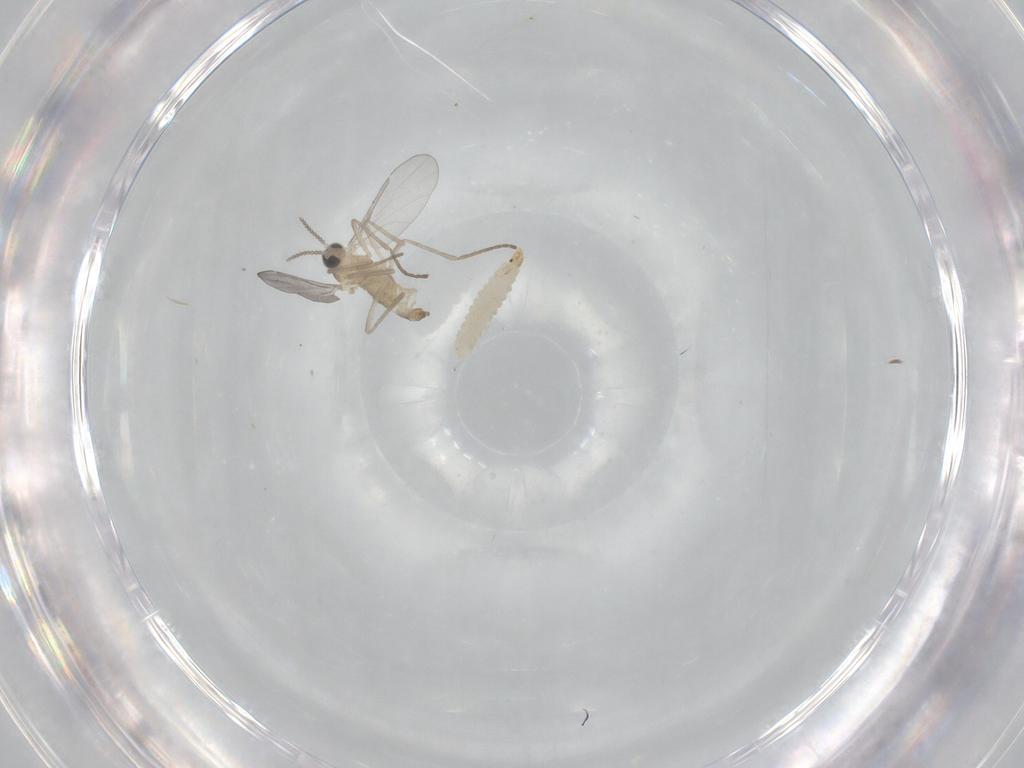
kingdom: Animalia
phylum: Arthropoda
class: Insecta
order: Diptera
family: Cecidomyiidae
